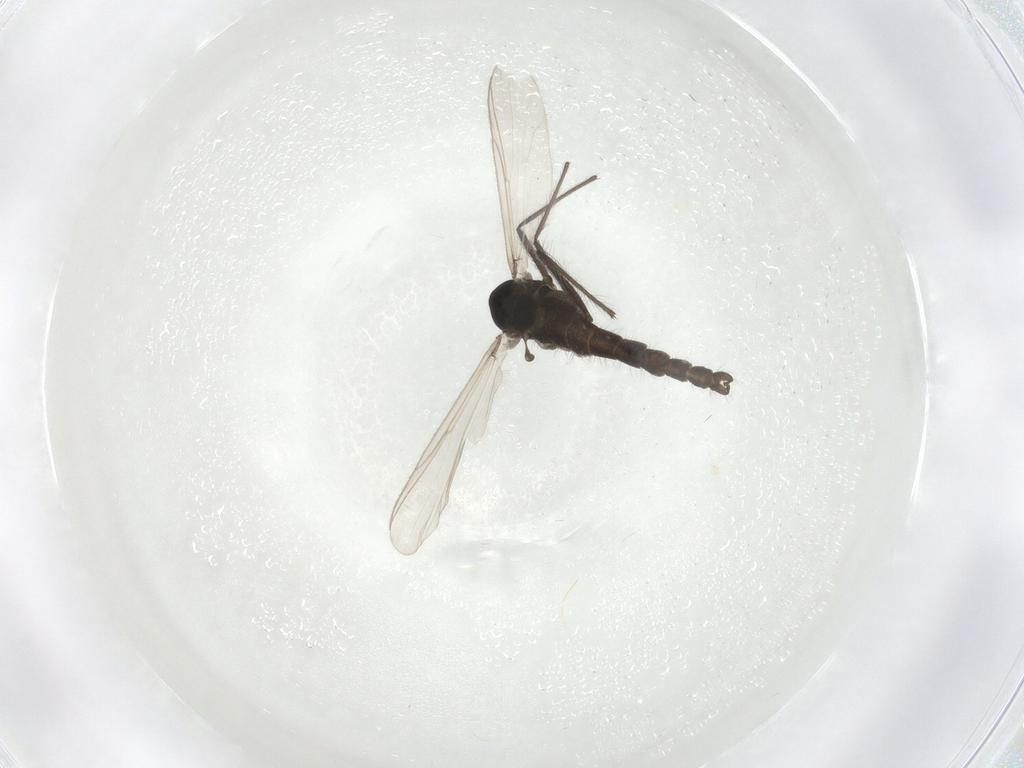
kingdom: Animalia
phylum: Arthropoda
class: Insecta
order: Diptera
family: Chironomidae
